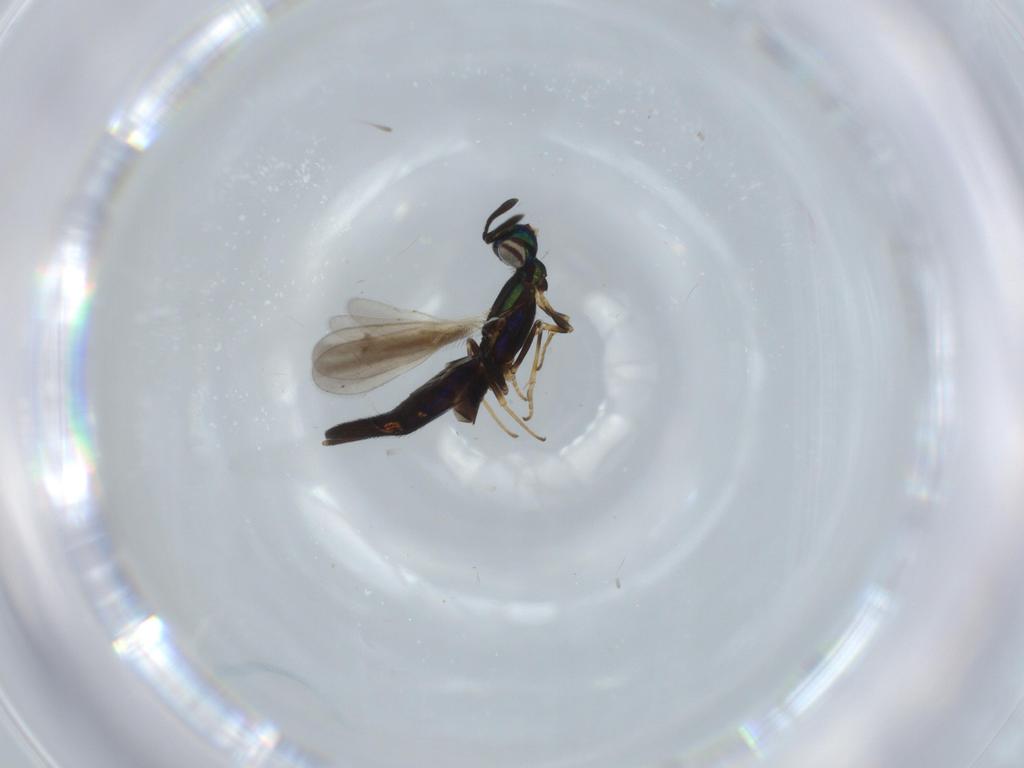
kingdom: Animalia
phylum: Arthropoda
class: Insecta
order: Hymenoptera
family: Eupelmidae
